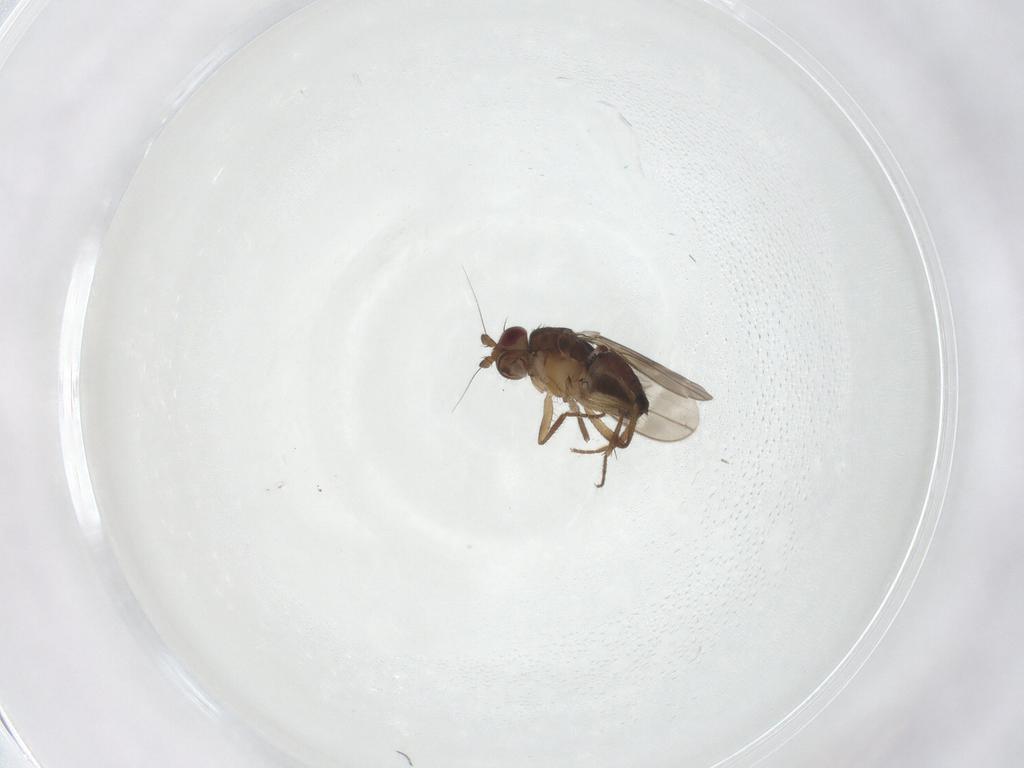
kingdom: Animalia
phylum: Arthropoda
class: Insecta
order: Diptera
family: Sphaeroceridae
